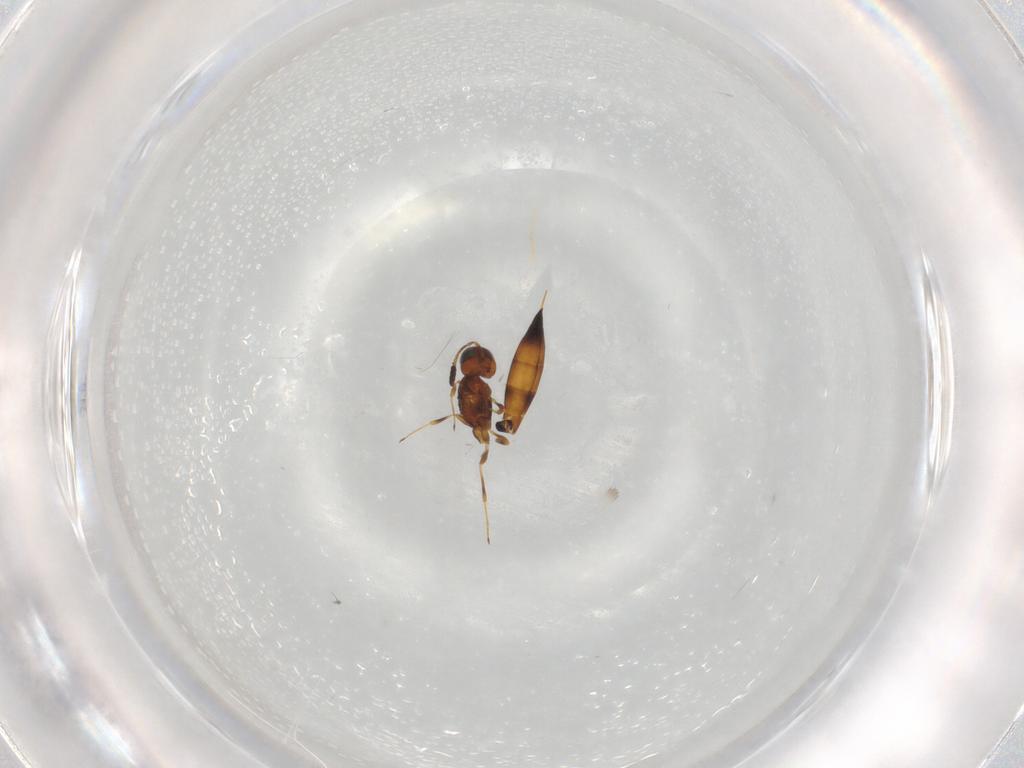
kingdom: Animalia
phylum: Arthropoda
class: Insecta
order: Hymenoptera
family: Scelionidae
